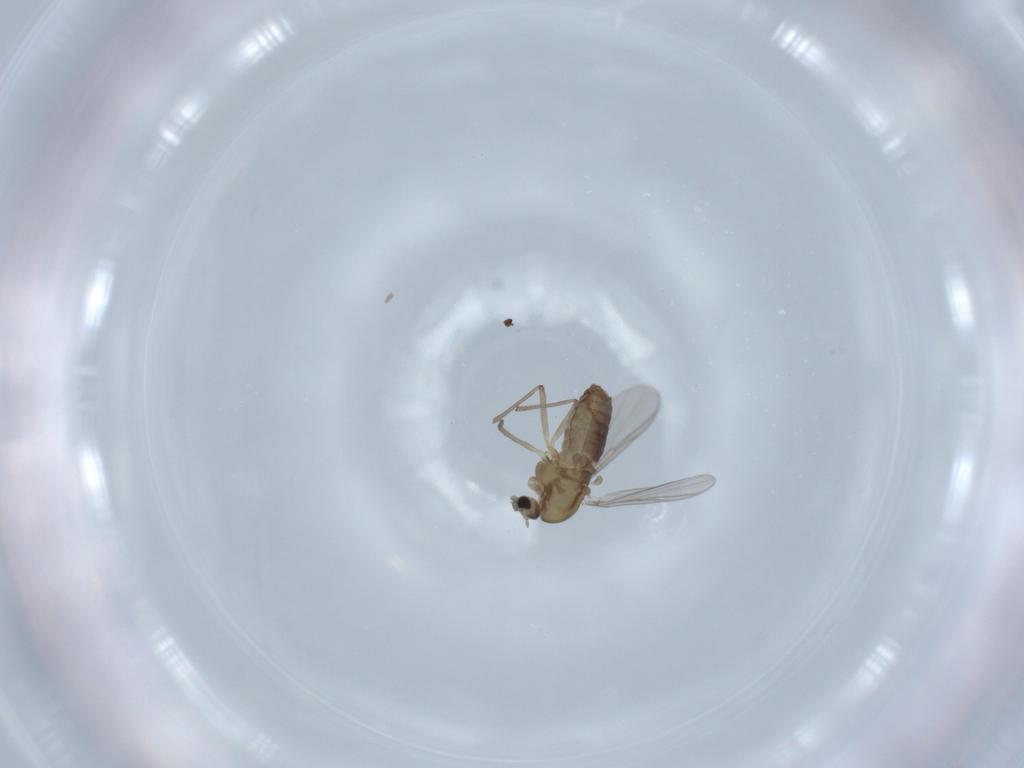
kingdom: Animalia
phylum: Arthropoda
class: Insecta
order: Diptera
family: Chironomidae
